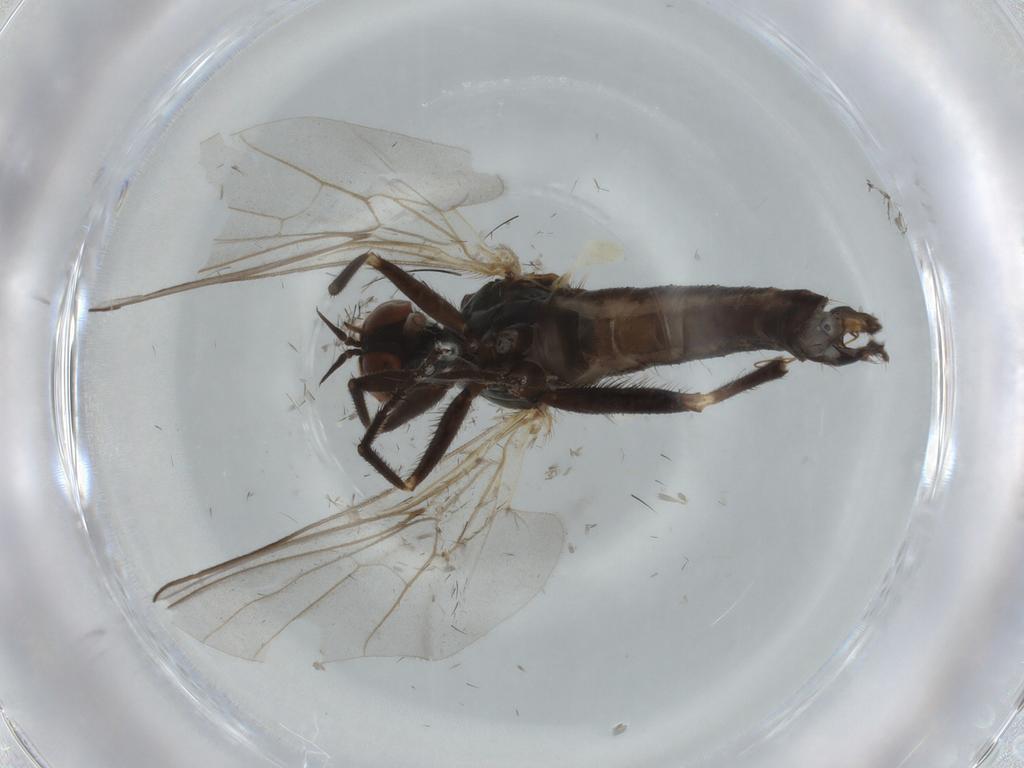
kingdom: Animalia
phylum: Arthropoda
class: Insecta
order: Diptera
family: Empididae
